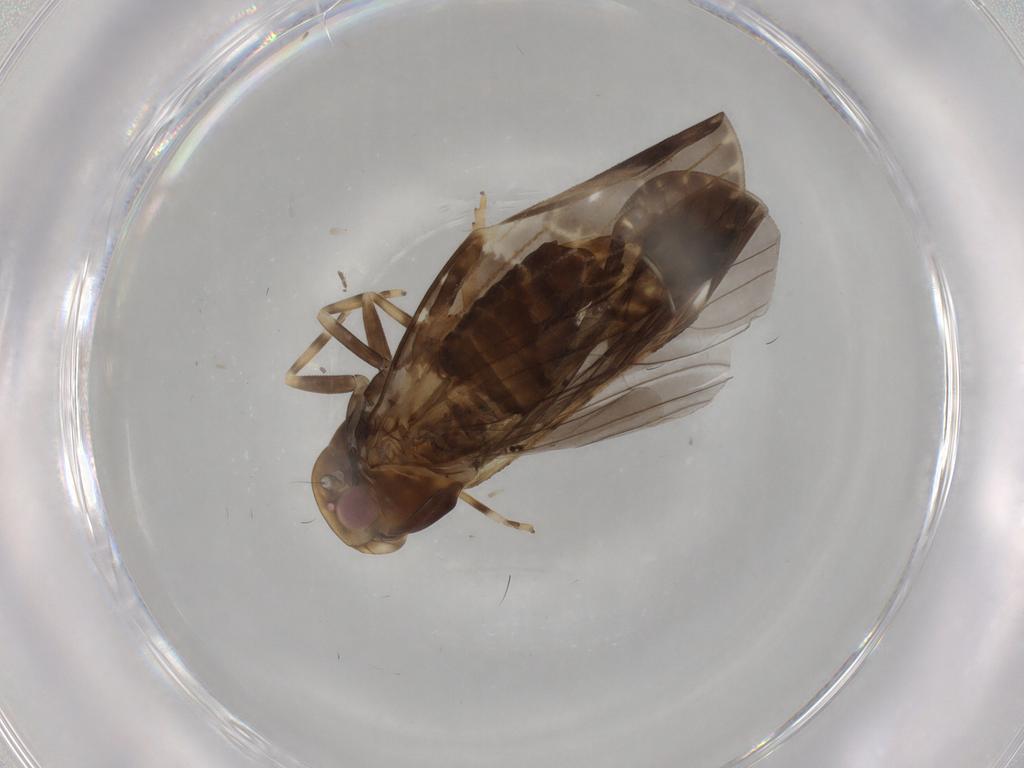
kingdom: Animalia
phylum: Arthropoda
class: Insecta
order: Hemiptera
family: Cixiidae
